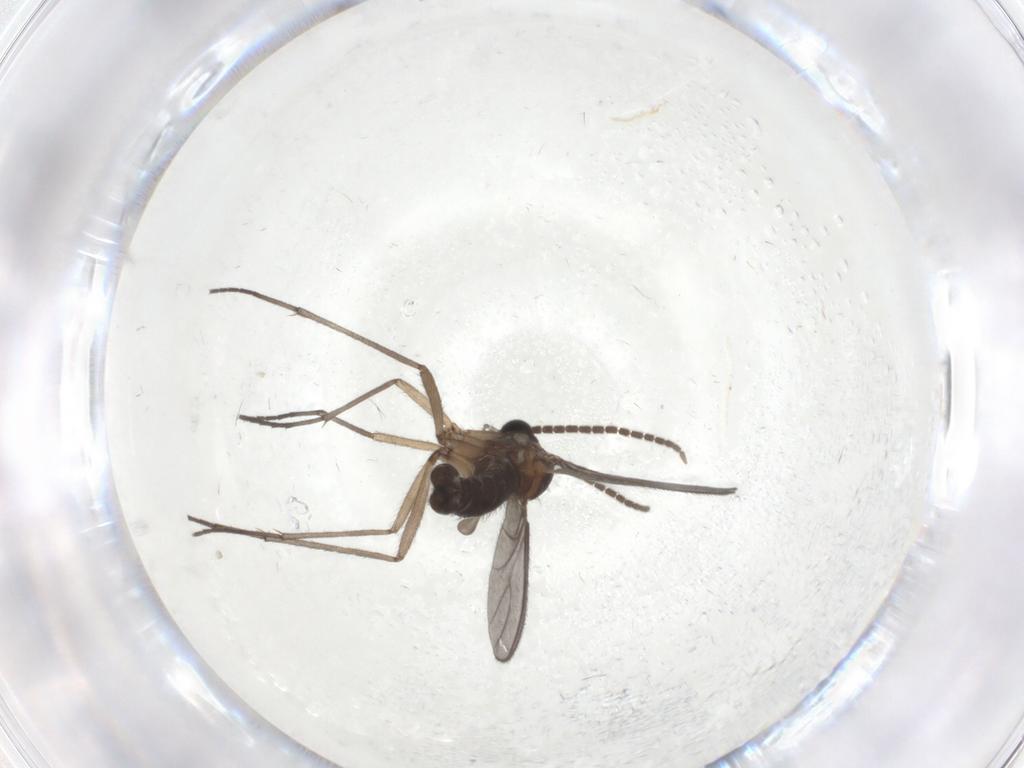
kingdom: Animalia
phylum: Arthropoda
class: Insecta
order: Diptera
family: Sciaridae
